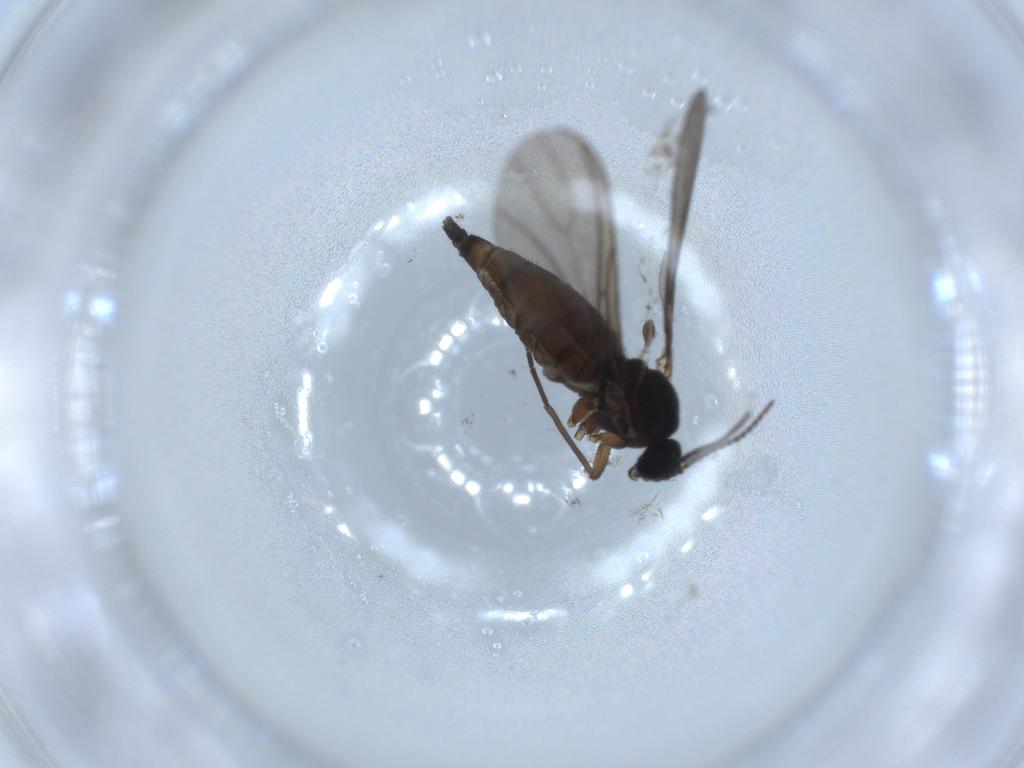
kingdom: Animalia
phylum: Arthropoda
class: Insecta
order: Diptera
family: Sciaridae
